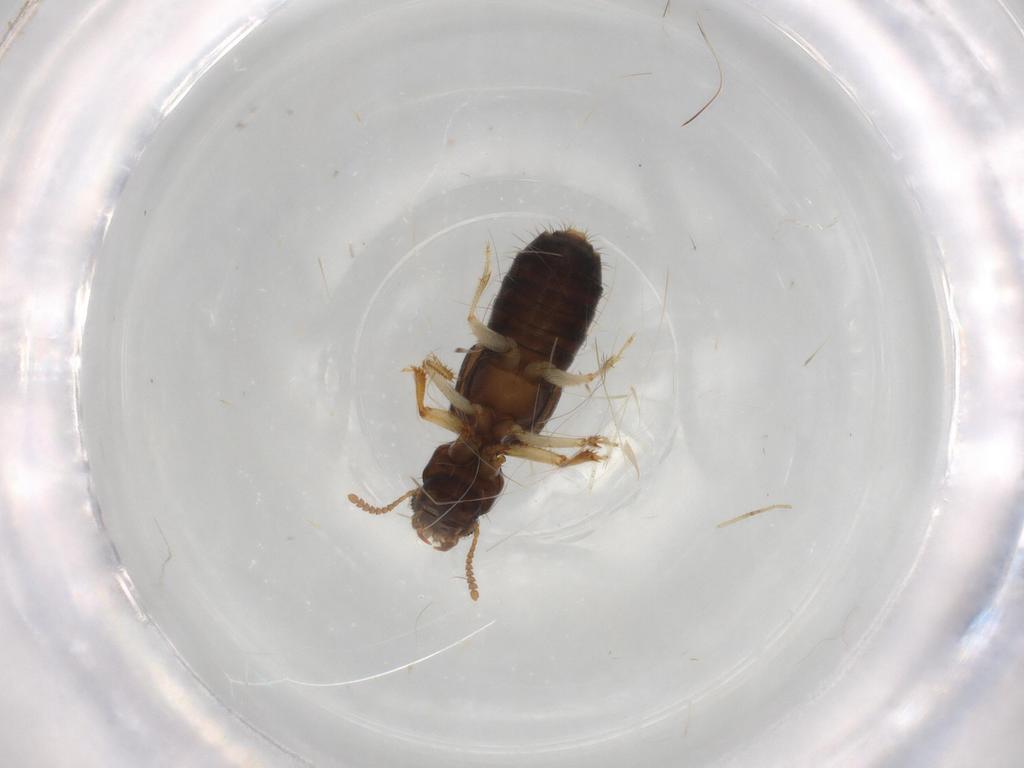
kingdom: Animalia
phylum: Arthropoda
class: Insecta
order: Coleoptera
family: Staphylinidae
